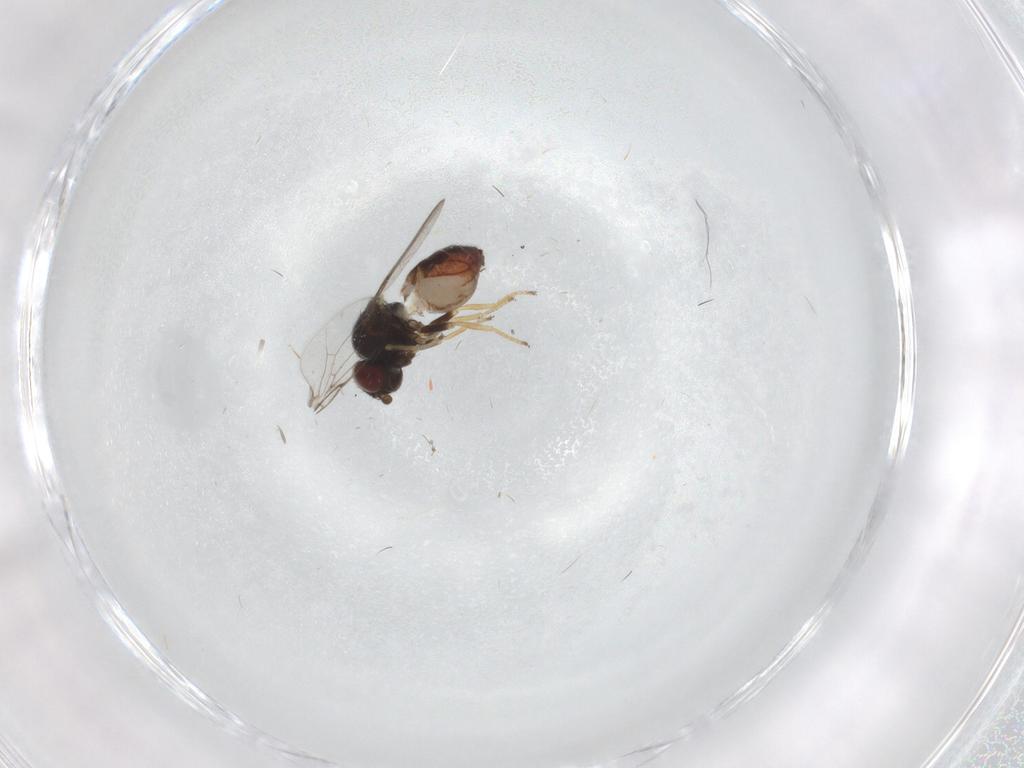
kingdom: Animalia
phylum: Arthropoda
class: Insecta
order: Diptera
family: Chloropidae
